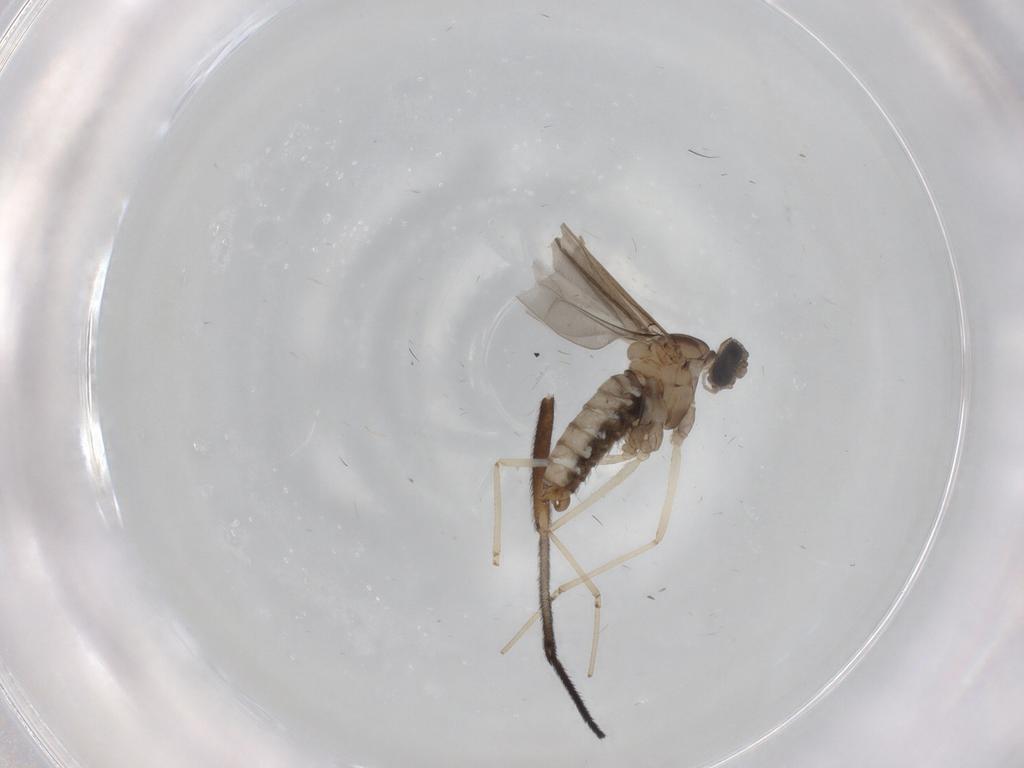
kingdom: Animalia
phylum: Arthropoda
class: Insecta
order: Diptera
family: Cecidomyiidae
